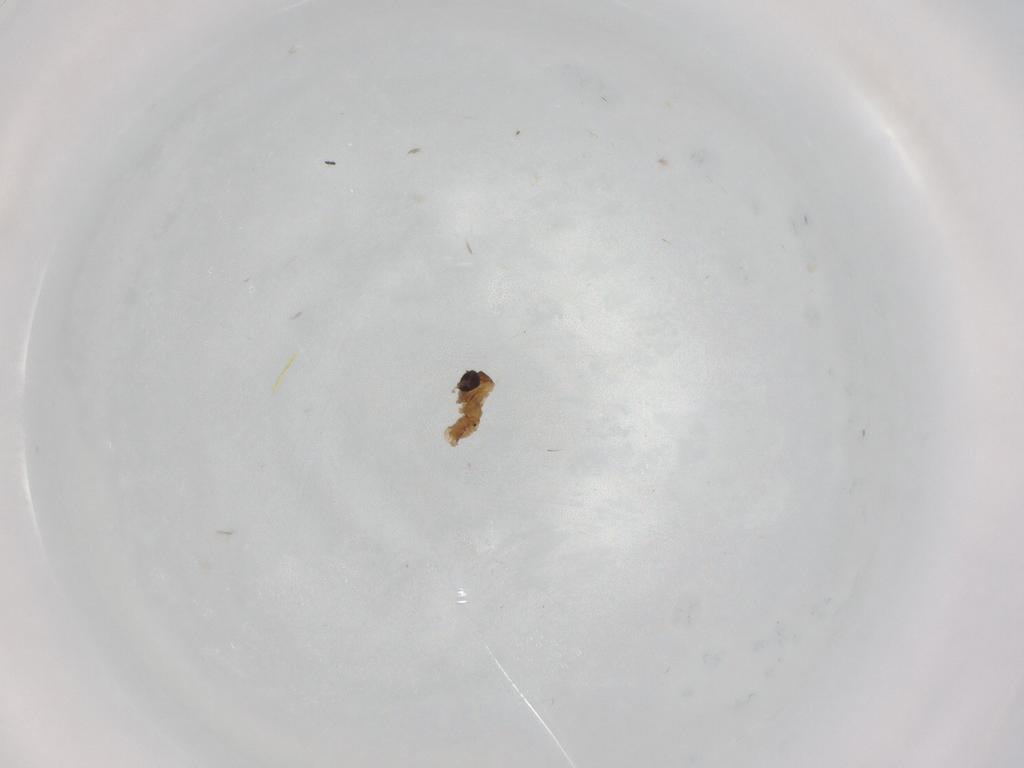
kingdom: Animalia
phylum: Arthropoda
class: Insecta
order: Diptera
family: Cecidomyiidae
